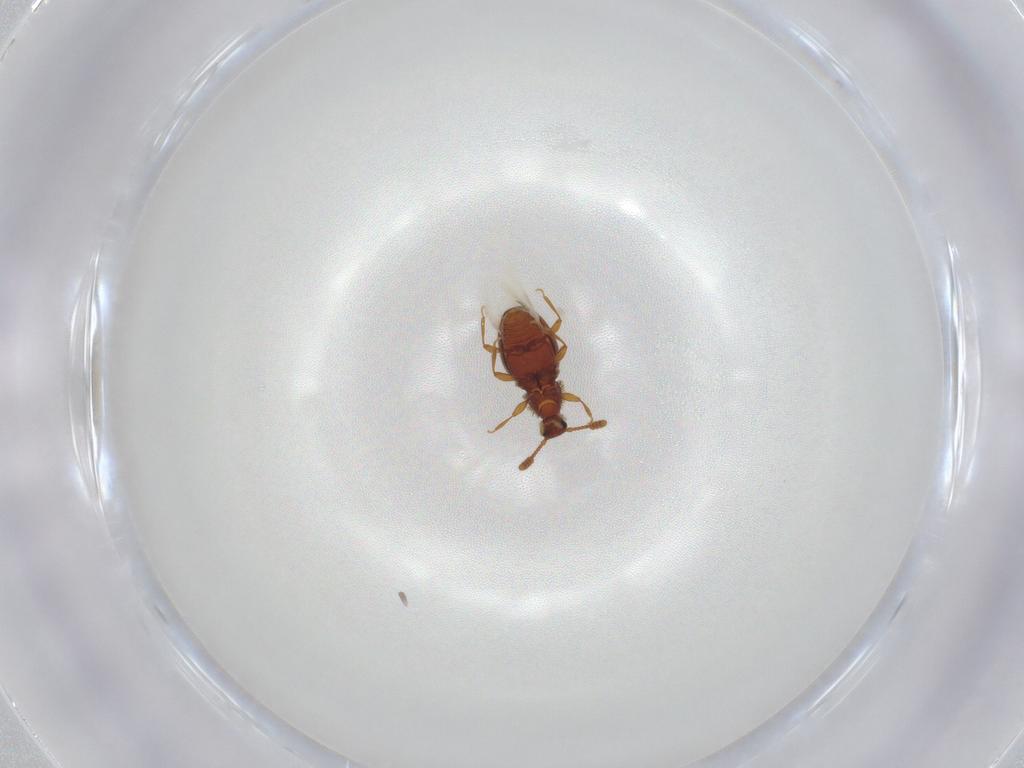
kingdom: Animalia
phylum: Arthropoda
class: Insecta
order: Coleoptera
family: Staphylinidae
